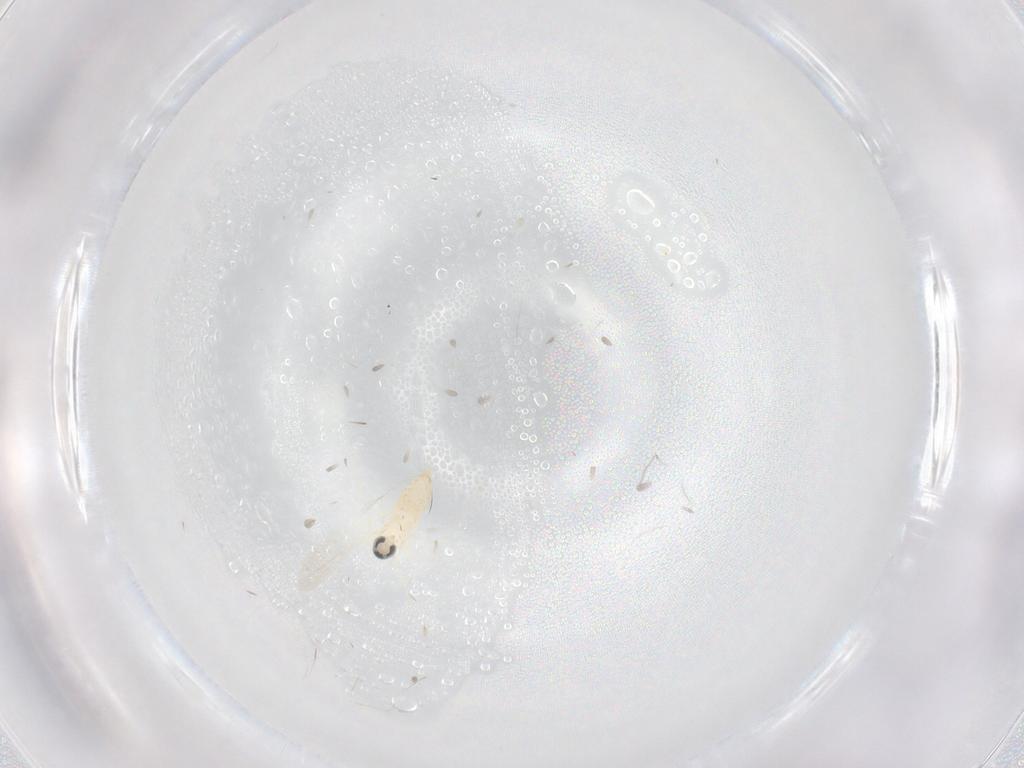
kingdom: Animalia
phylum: Arthropoda
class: Insecta
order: Diptera
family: Cecidomyiidae
